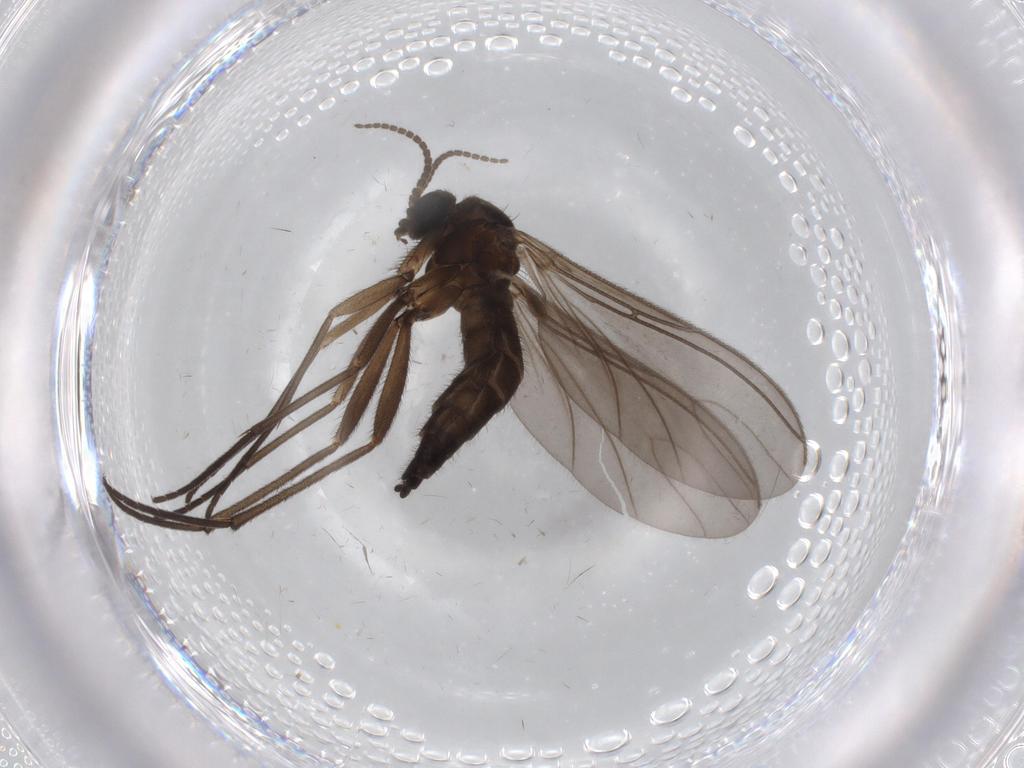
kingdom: Animalia
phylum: Arthropoda
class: Insecta
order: Diptera
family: Sciaridae
